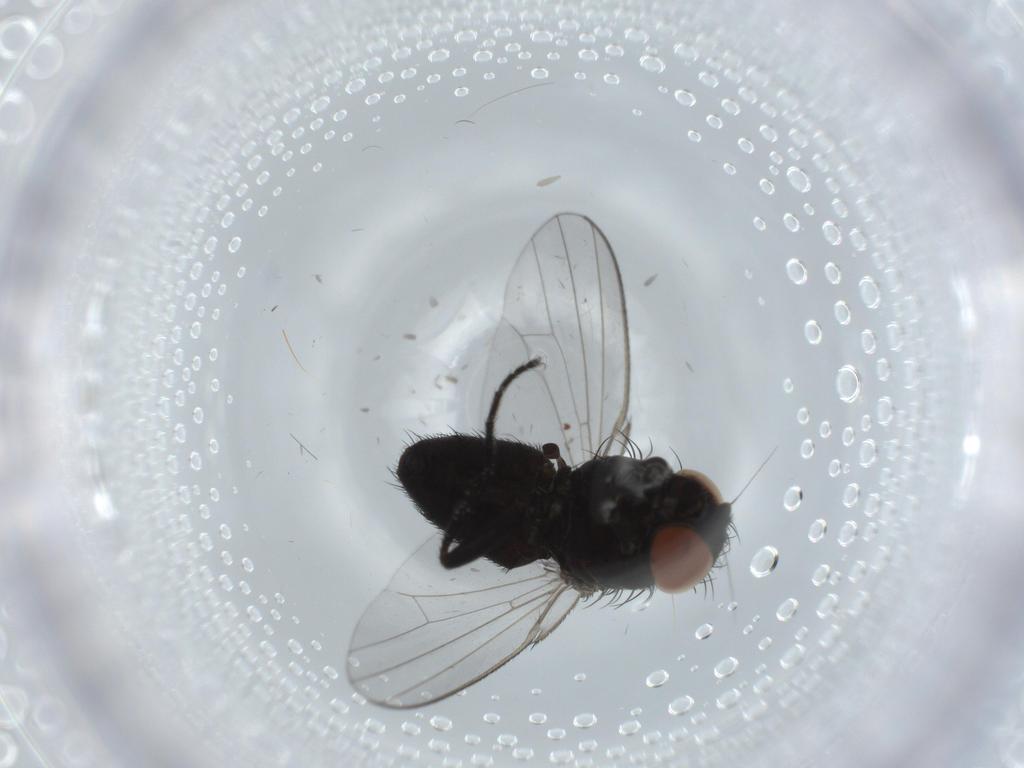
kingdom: Animalia
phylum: Arthropoda
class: Insecta
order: Diptera
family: Milichiidae
